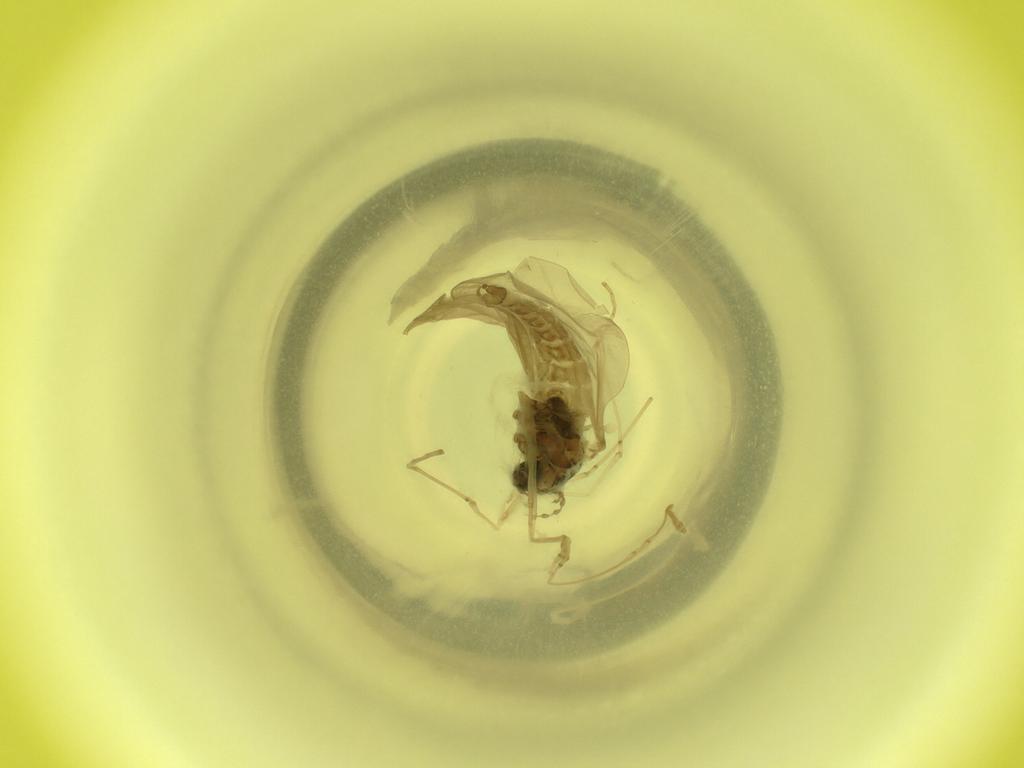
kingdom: Animalia
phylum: Arthropoda
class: Insecta
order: Diptera
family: Cecidomyiidae
